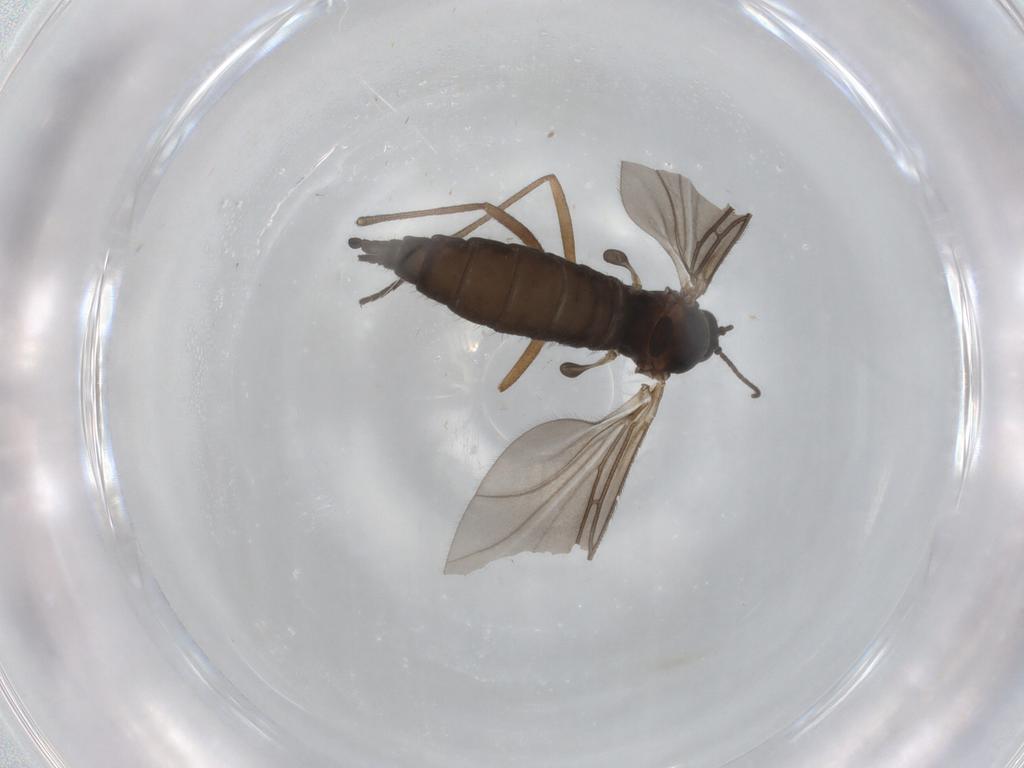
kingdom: Animalia
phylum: Arthropoda
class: Insecta
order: Diptera
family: Sciaridae
